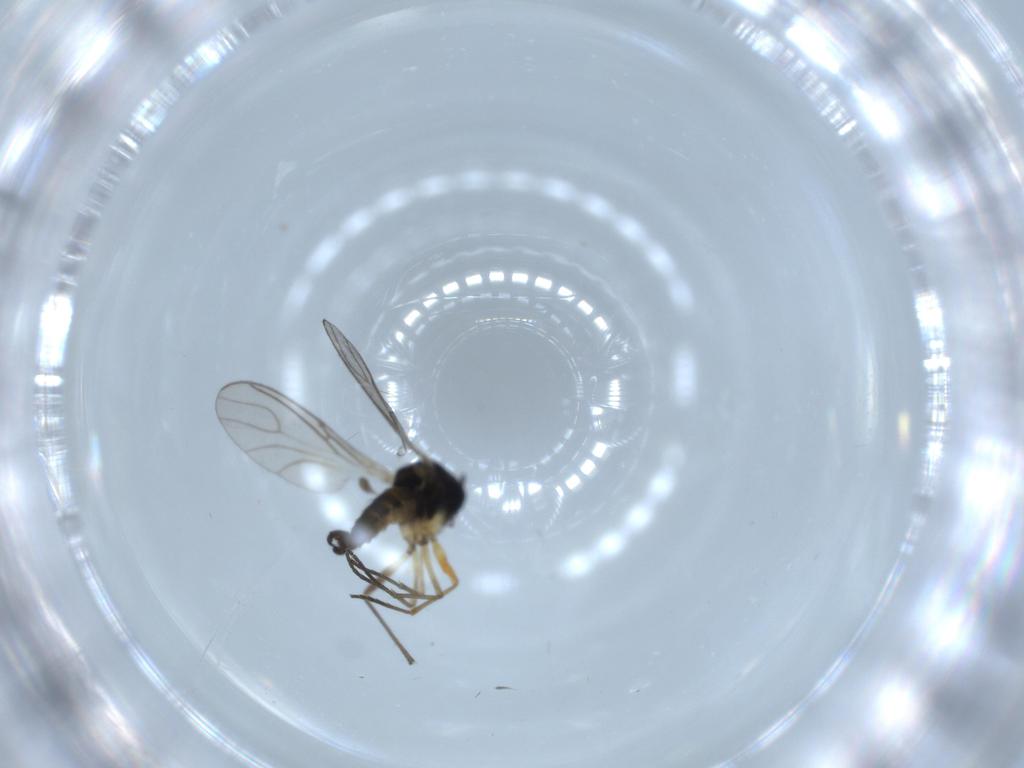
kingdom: Animalia
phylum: Arthropoda
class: Insecta
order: Diptera
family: Sciaridae
